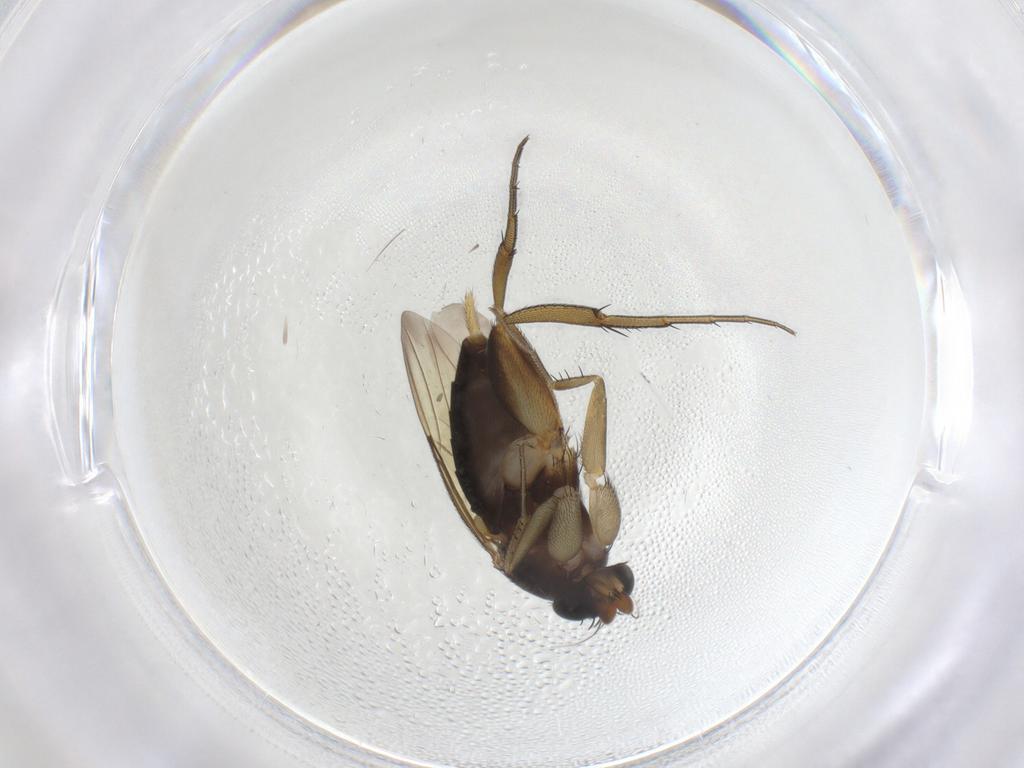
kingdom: Animalia
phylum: Arthropoda
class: Insecta
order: Diptera
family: Phoridae
